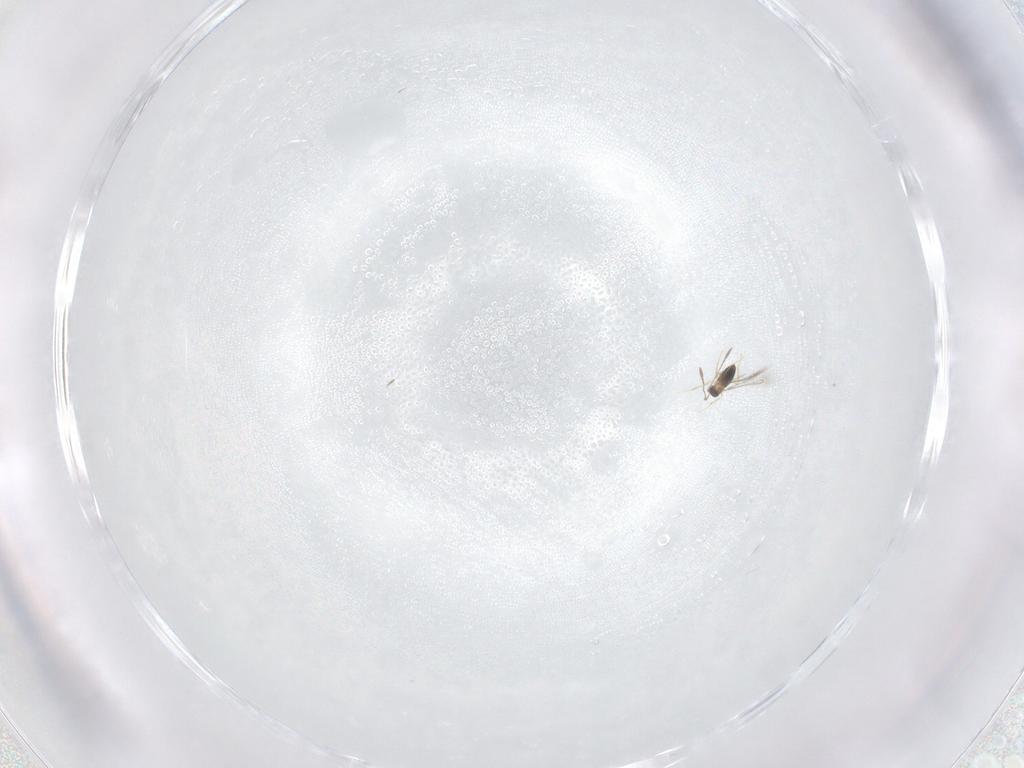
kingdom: Animalia
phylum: Arthropoda
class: Insecta
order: Hymenoptera
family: Mymaridae
